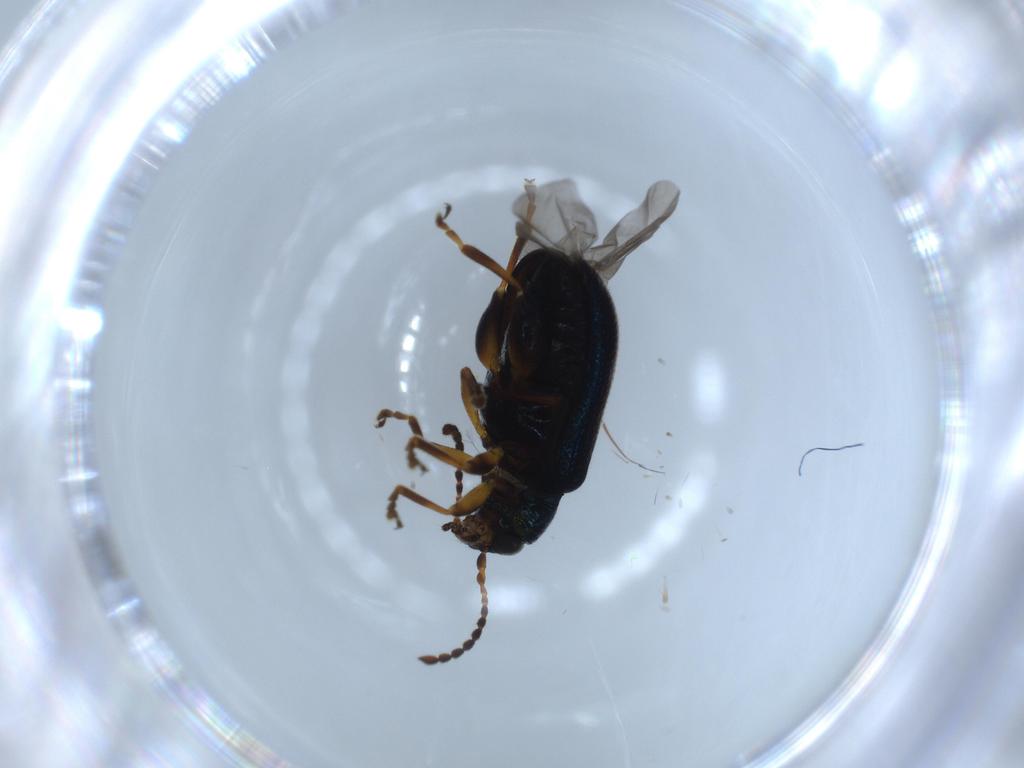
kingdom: Animalia
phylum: Arthropoda
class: Insecta
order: Coleoptera
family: Chrysomelidae
